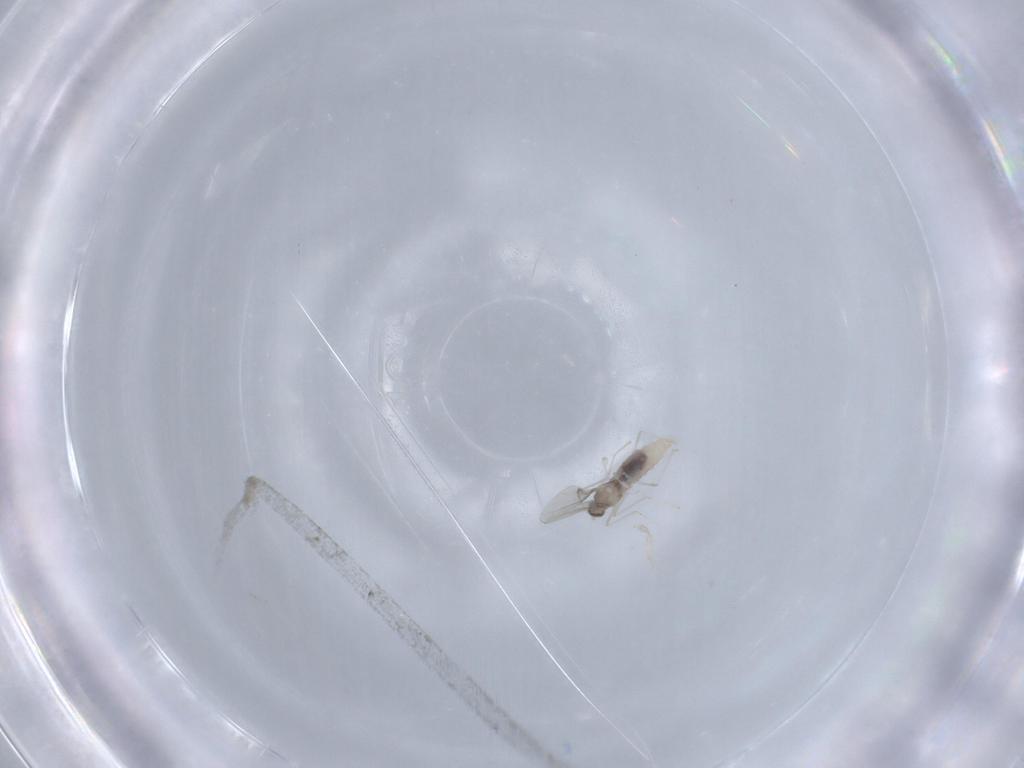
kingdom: Animalia
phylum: Arthropoda
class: Insecta
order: Diptera
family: Cecidomyiidae
